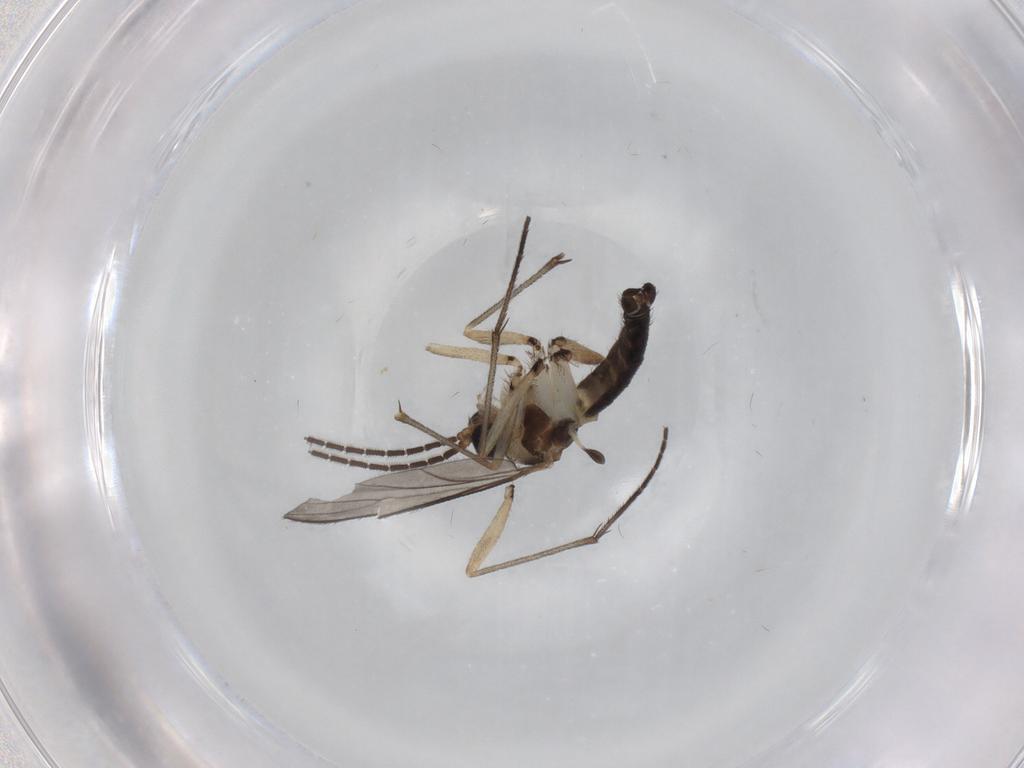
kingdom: Animalia
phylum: Arthropoda
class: Insecta
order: Diptera
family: Sciaridae
